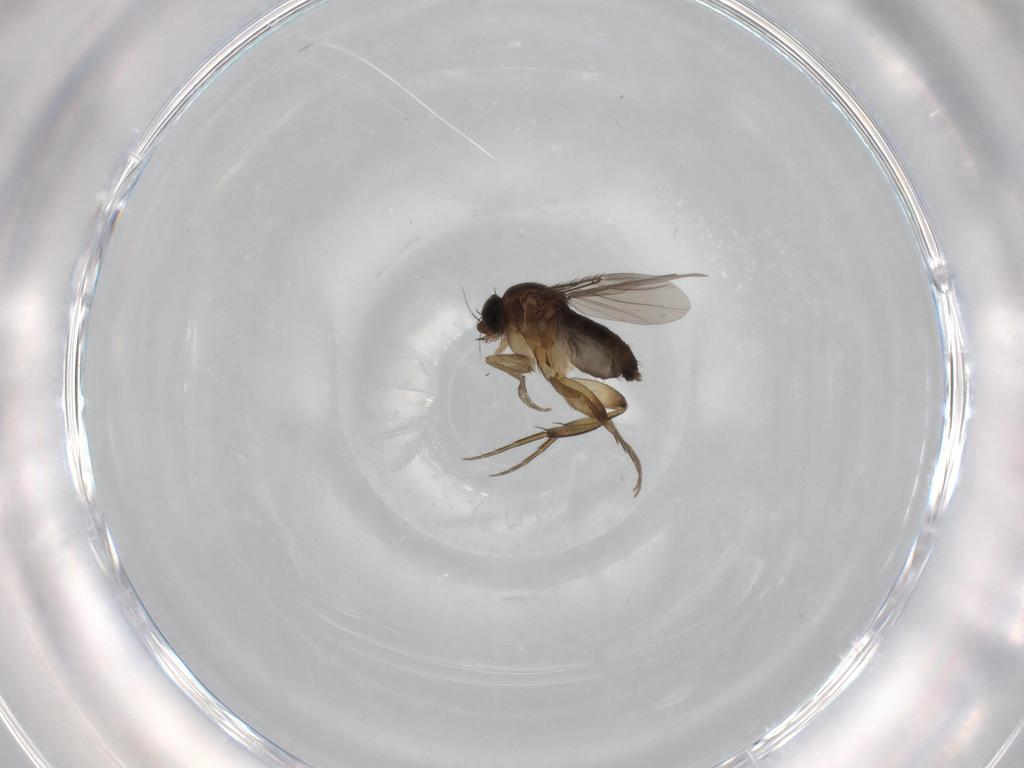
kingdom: Animalia
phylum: Arthropoda
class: Insecta
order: Diptera
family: Phoridae
